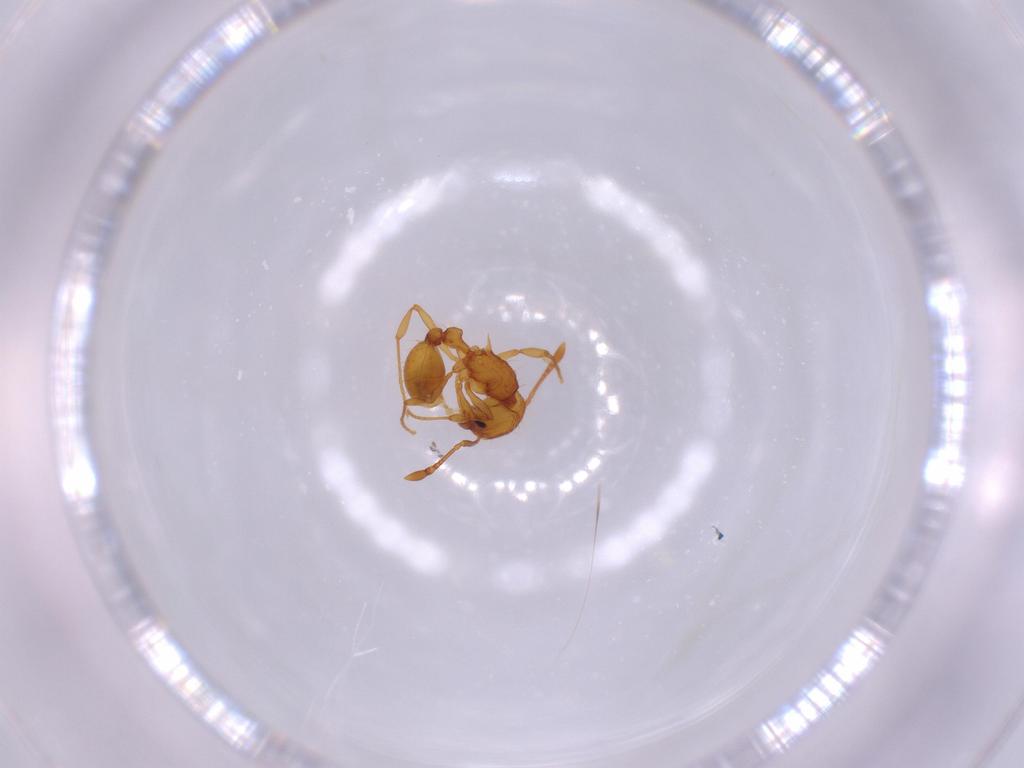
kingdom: Animalia
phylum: Arthropoda
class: Insecta
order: Hymenoptera
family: Formicidae
